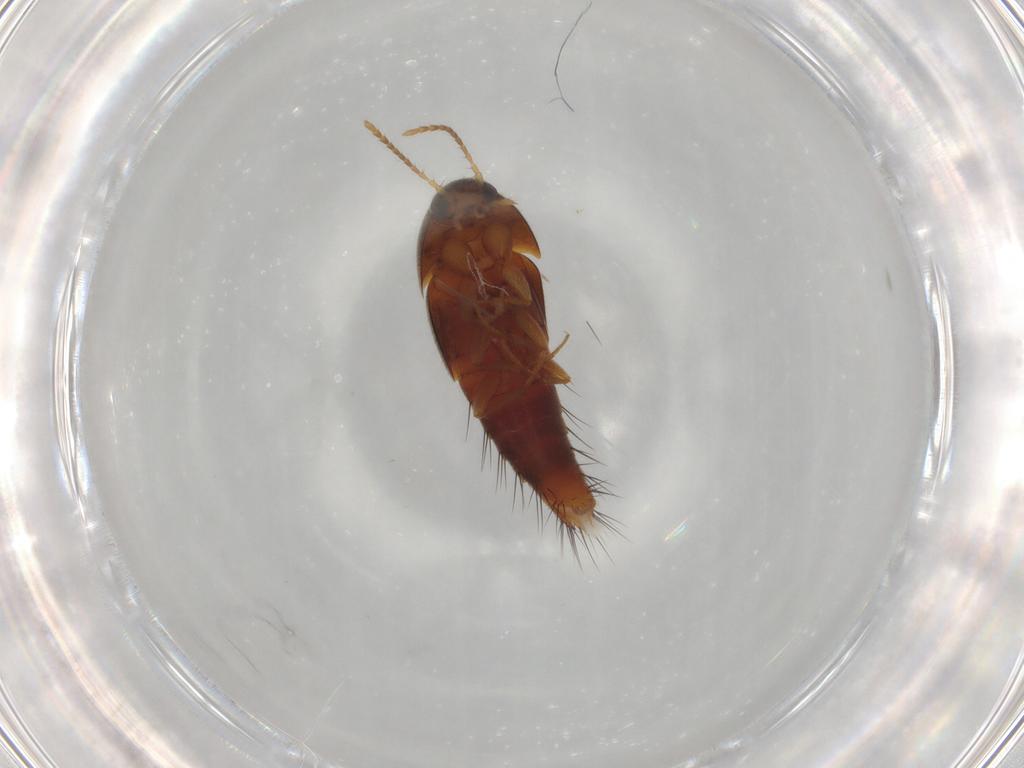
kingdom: Animalia
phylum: Arthropoda
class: Insecta
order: Coleoptera
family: Staphylinidae
